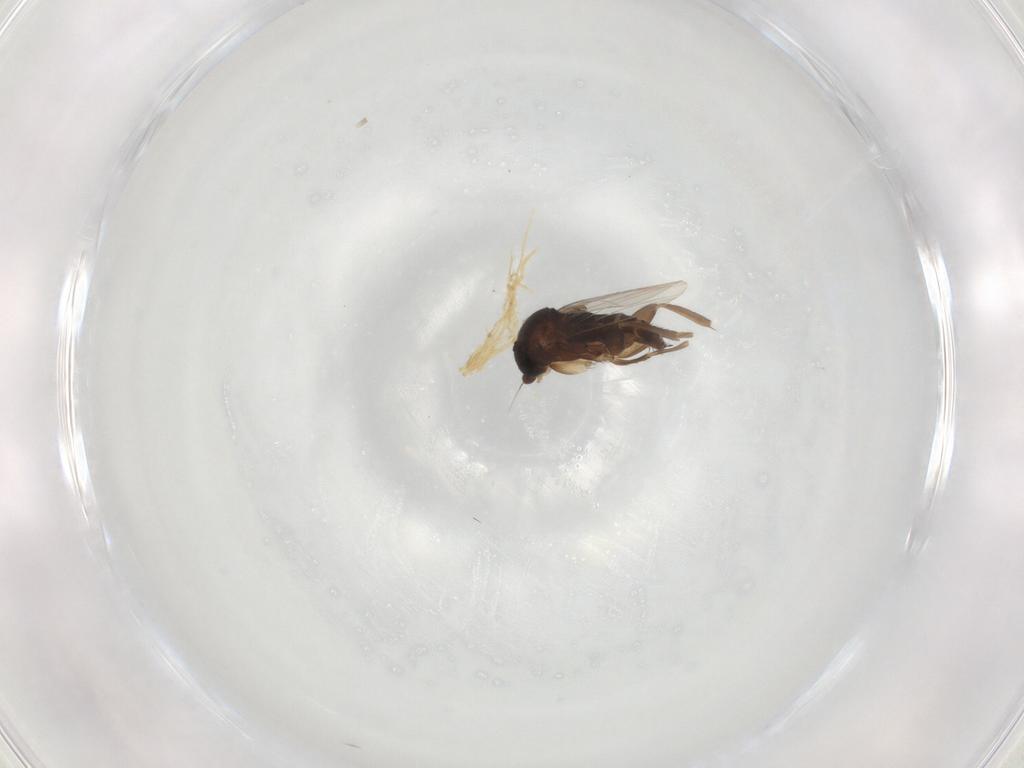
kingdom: Animalia
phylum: Arthropoda
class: Insecta
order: Diptera
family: Phoridae
